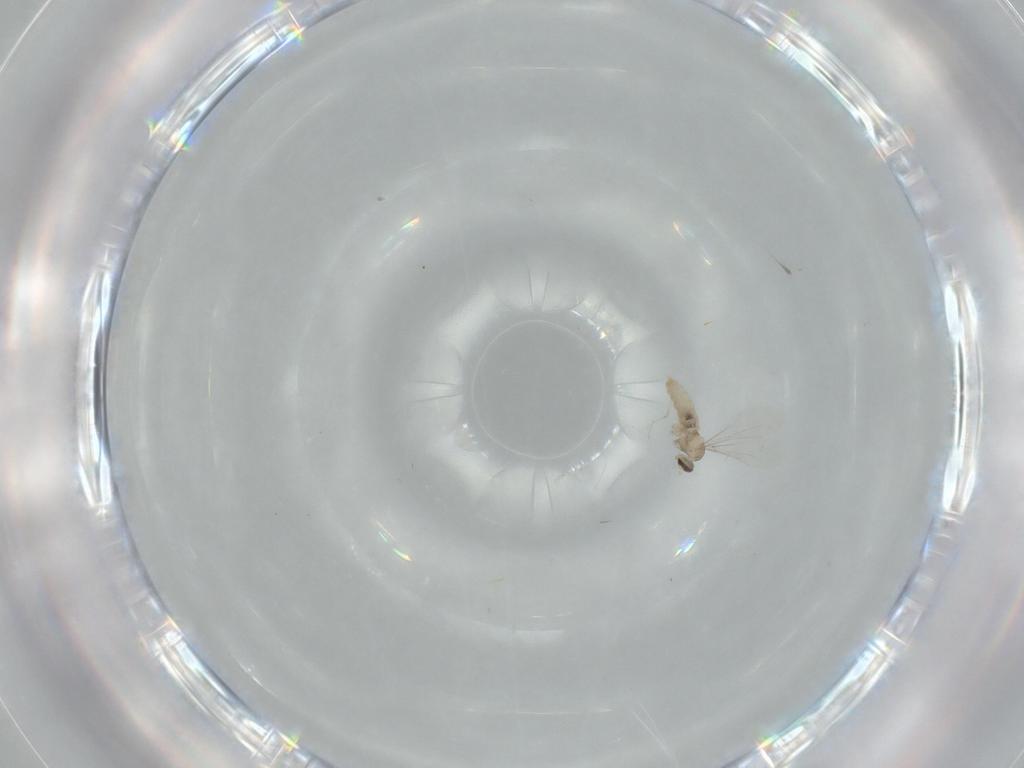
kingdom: Animalia
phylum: Arthropoda
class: Insecta
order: Diptera
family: Cecidomyiidae
